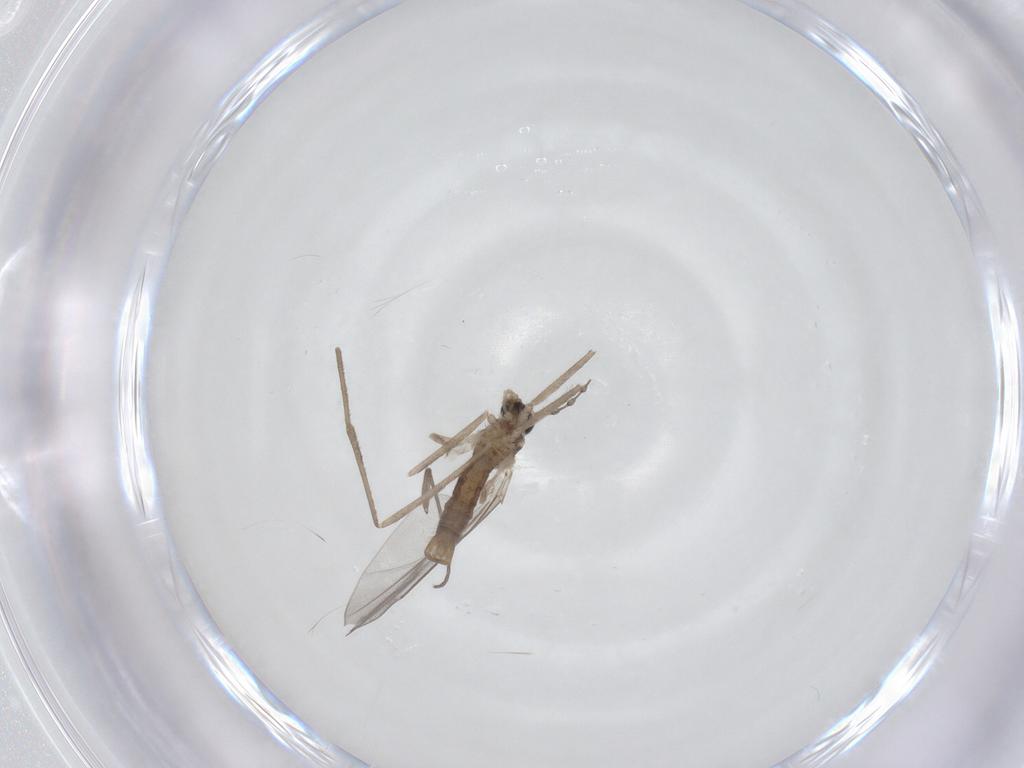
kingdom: Animalia
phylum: Arthropoda
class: Insecta
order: Diptera
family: Cecidomyiidae
